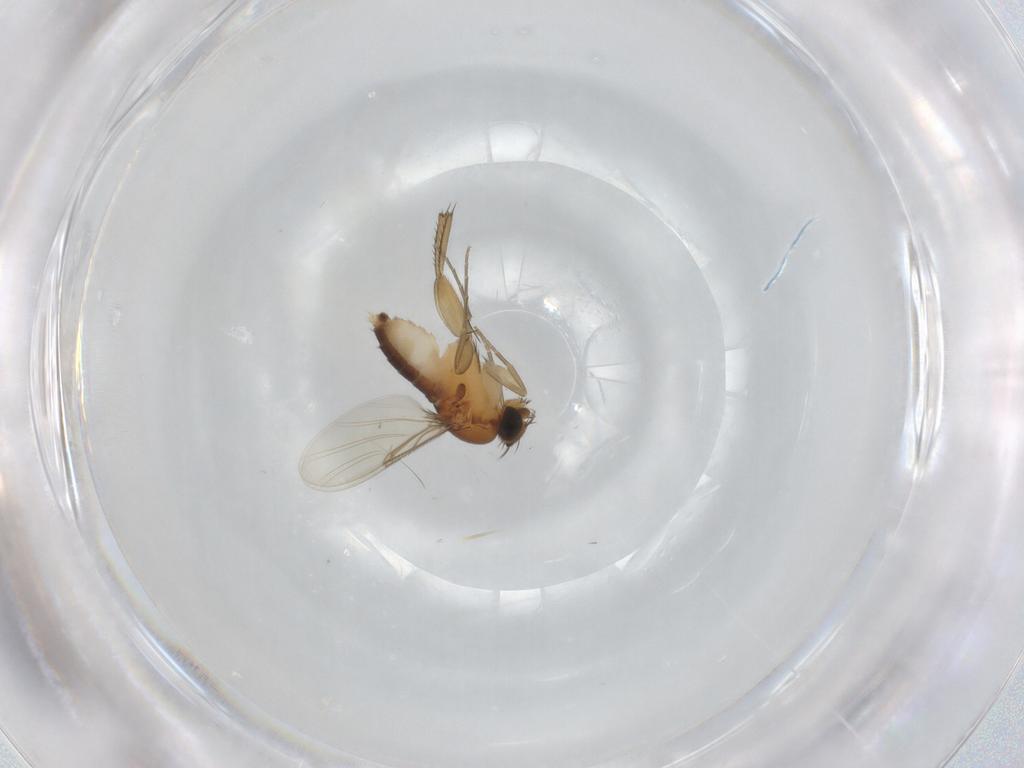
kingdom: Animalia
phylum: Arthropoda
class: Insecta
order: Diptera
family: Phoridae
